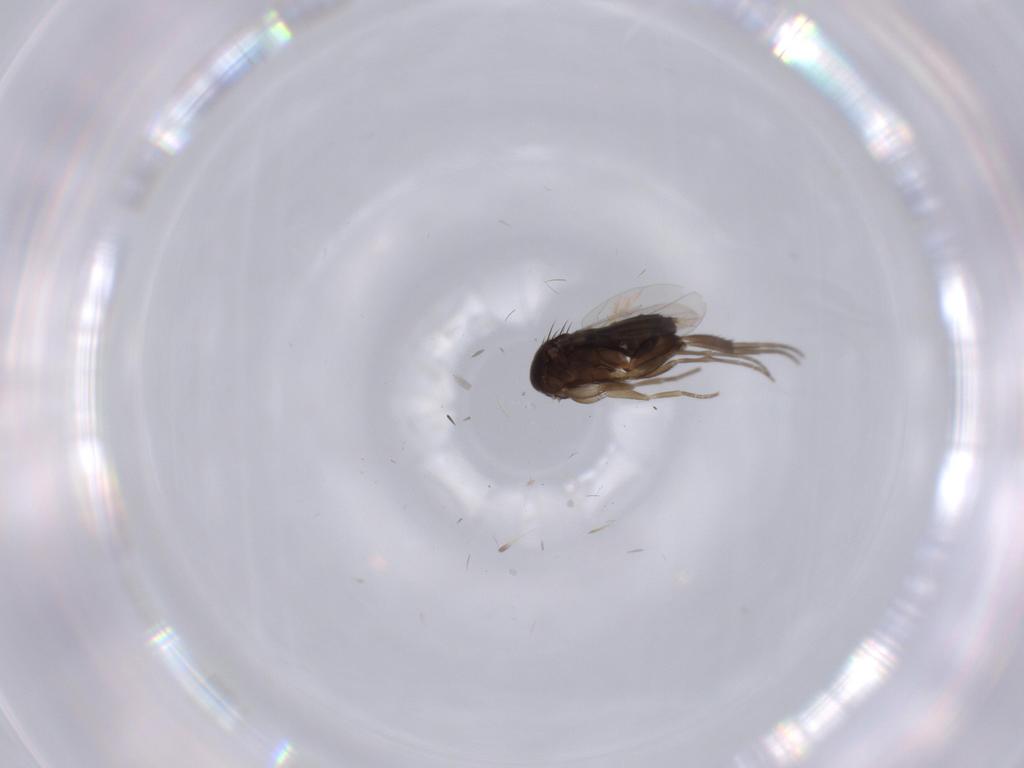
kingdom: Animalia
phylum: Arthropoda
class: Insecta
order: Diptera
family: Phoridae
